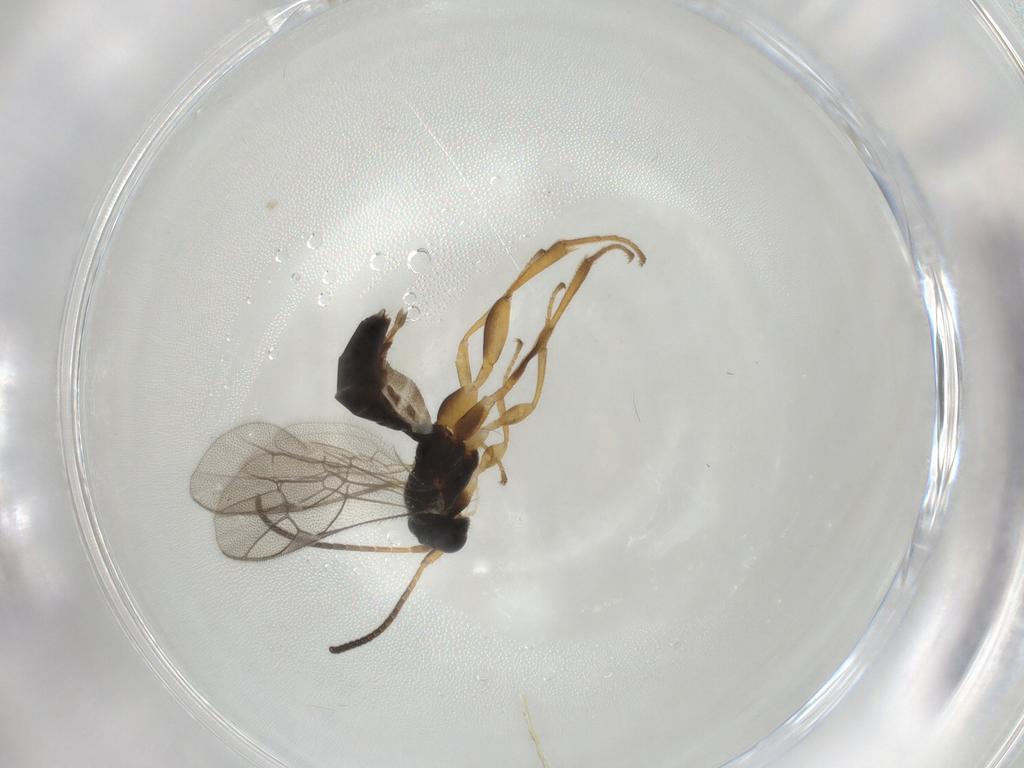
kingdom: Animalia
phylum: Arthropoda
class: Insecta
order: Hymenoptera
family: Ichneumonidae
